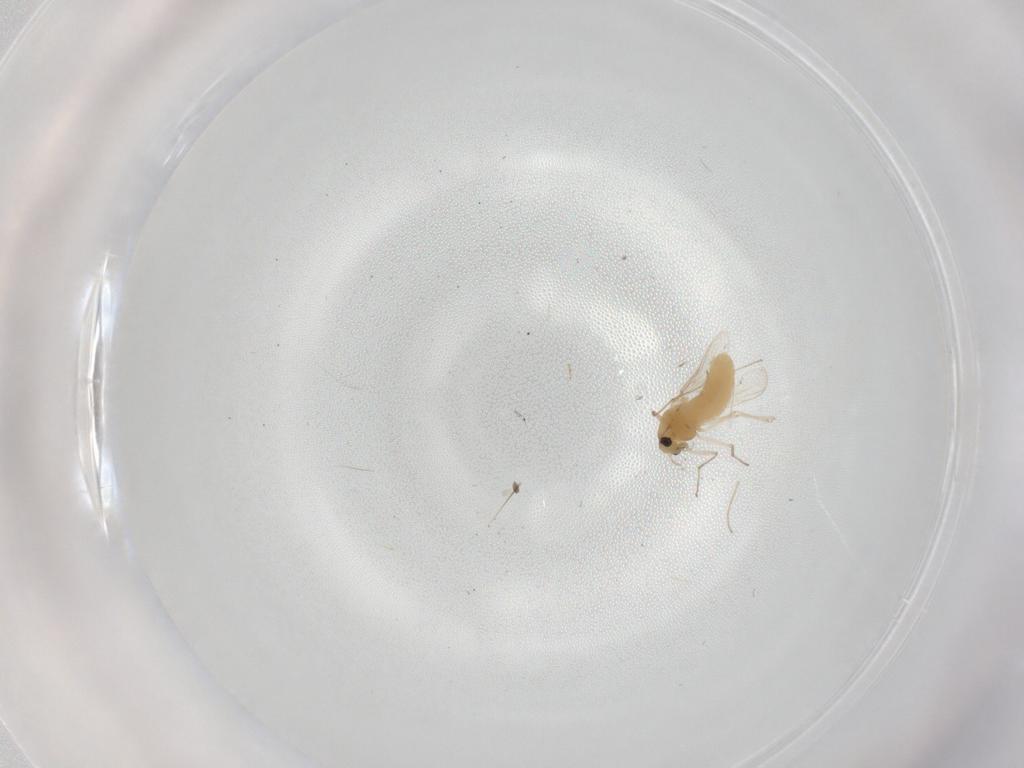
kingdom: Animalia
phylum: Arthropoda
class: Insecta
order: Diptera
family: Chironomidae
